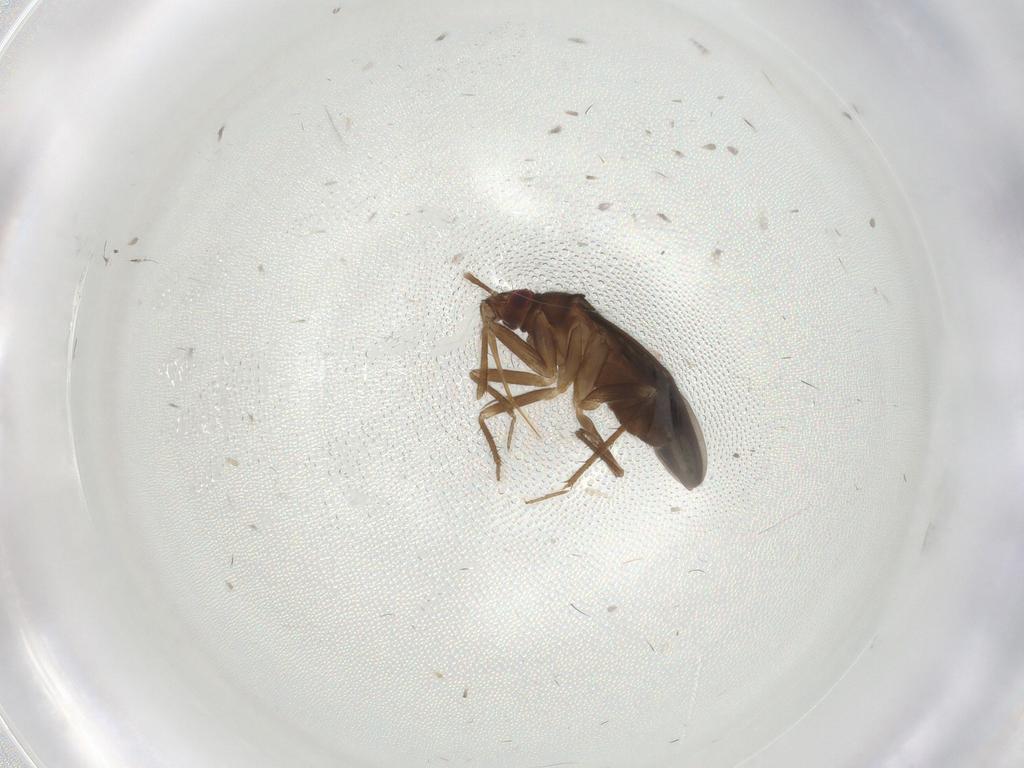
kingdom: Animalia
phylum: Arthropoda
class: Insecta
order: Hemiptera
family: Ceratocombidae
